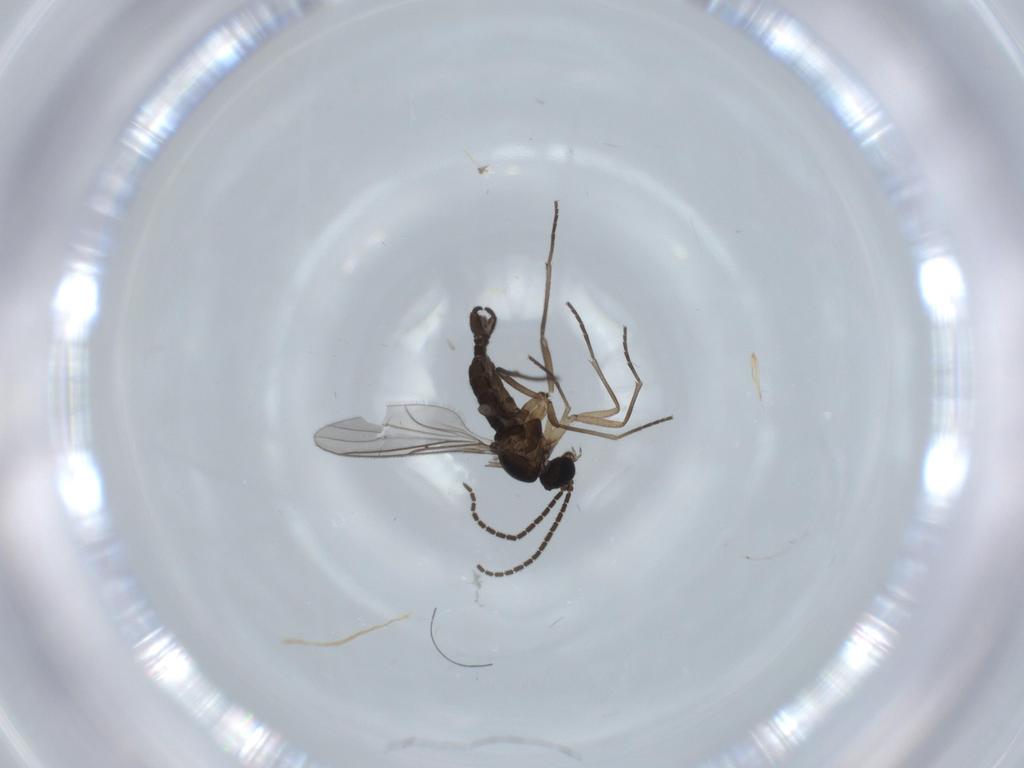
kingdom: Animalia
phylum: Arthropoda
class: Insecta
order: Diptera
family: Sciaridae
